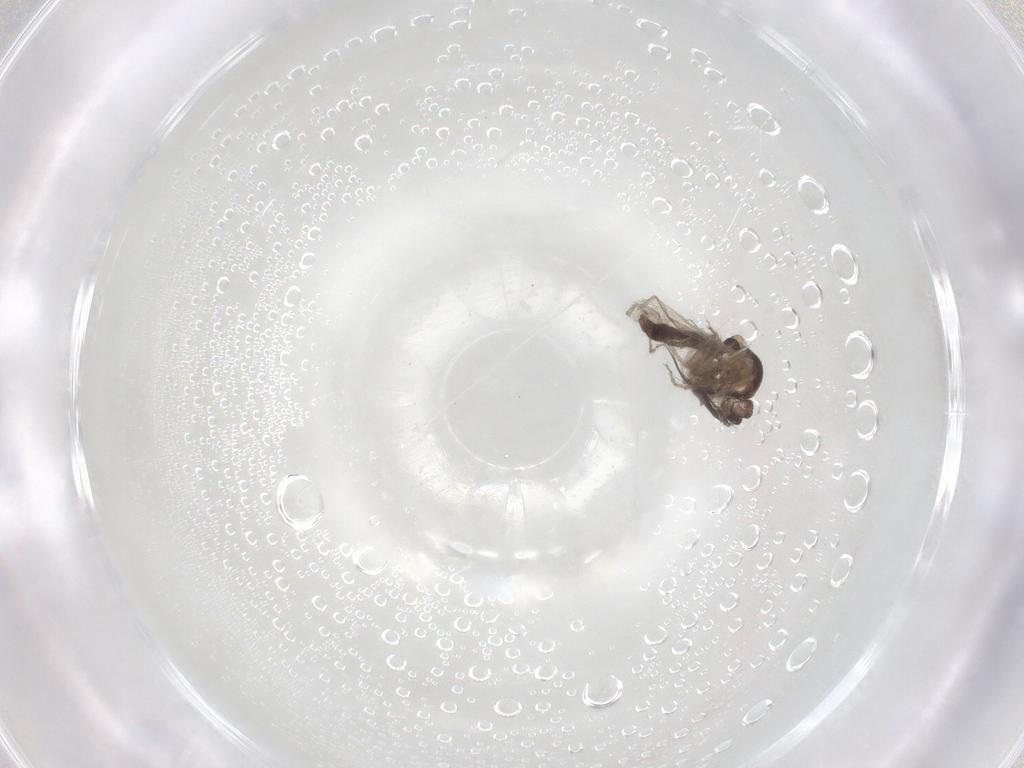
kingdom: Animalia
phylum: Arthropoda
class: Insecta
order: Diptera
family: Ceratopogonidae
